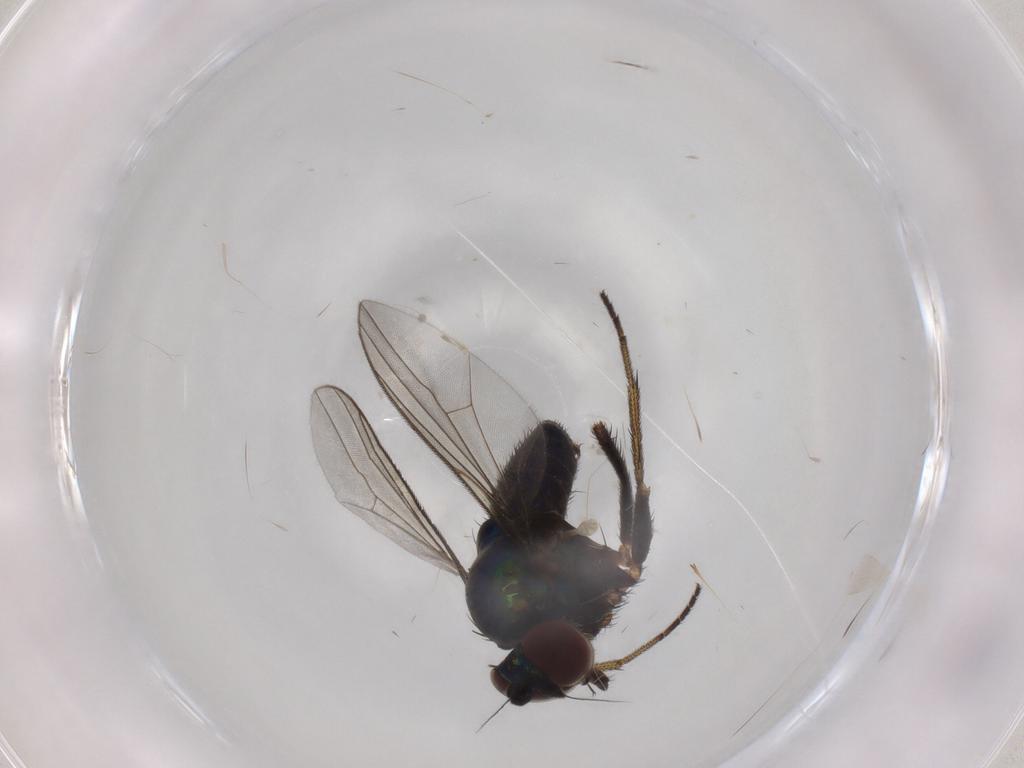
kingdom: Animalia
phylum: Arthropoda
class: Insecta
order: Diptera
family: Dolichopodidae
